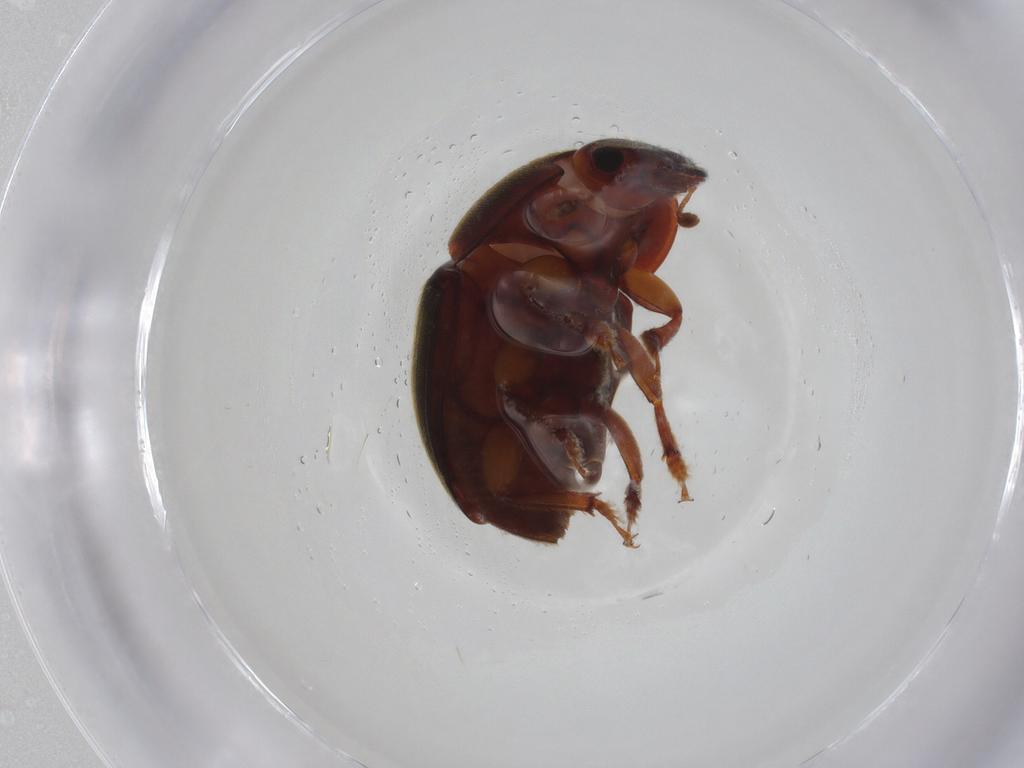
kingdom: Animalia
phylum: Arthropoda
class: Insecta
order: Coleoptera
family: Nitidulidae
